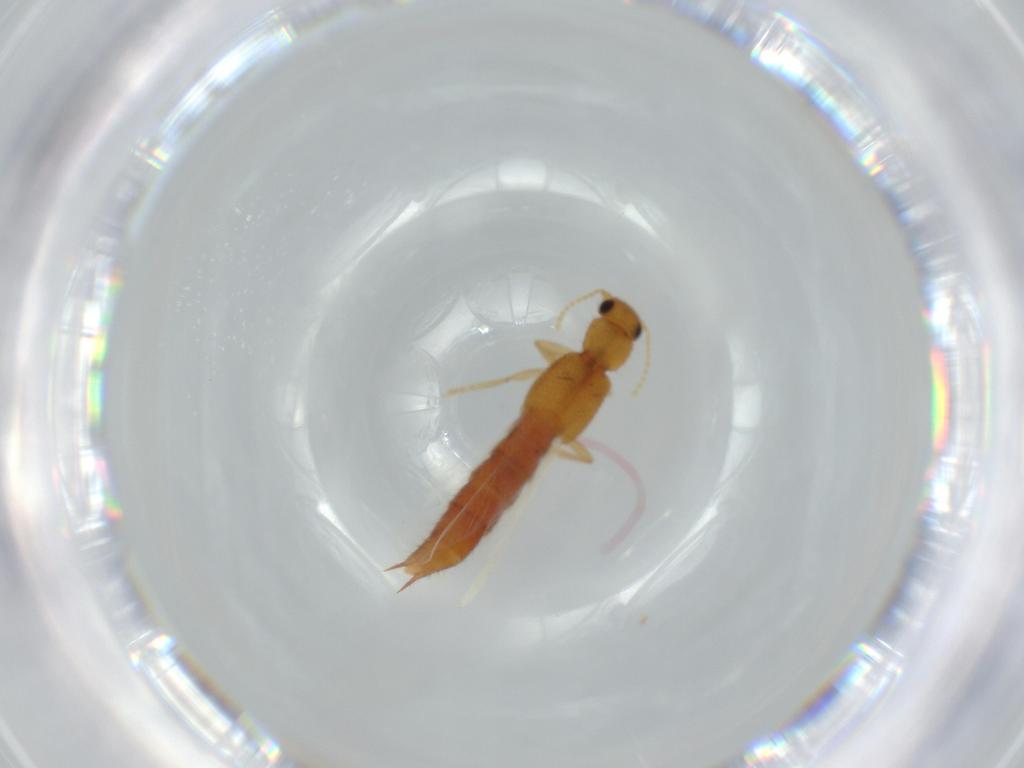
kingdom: Animalia
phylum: Arthropoda
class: Insecta
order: Coleoptera
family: Staphylinidae
